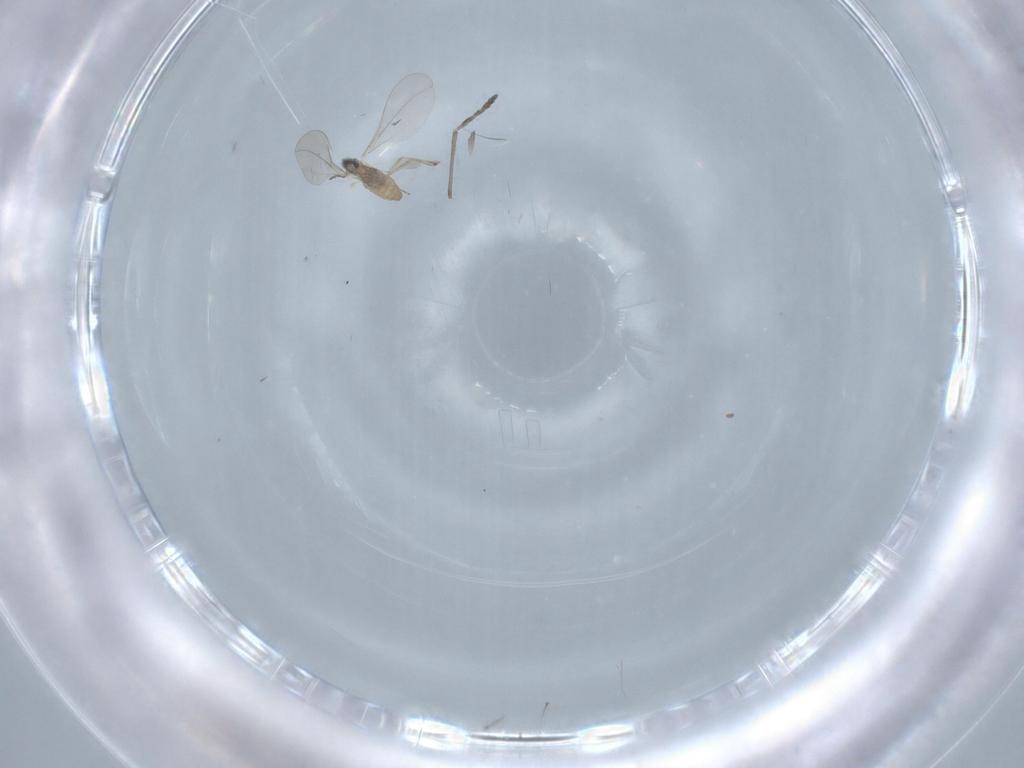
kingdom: Animalia
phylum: Arthropoda
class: Insecta
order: Diptera
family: Cecidomyiidae
